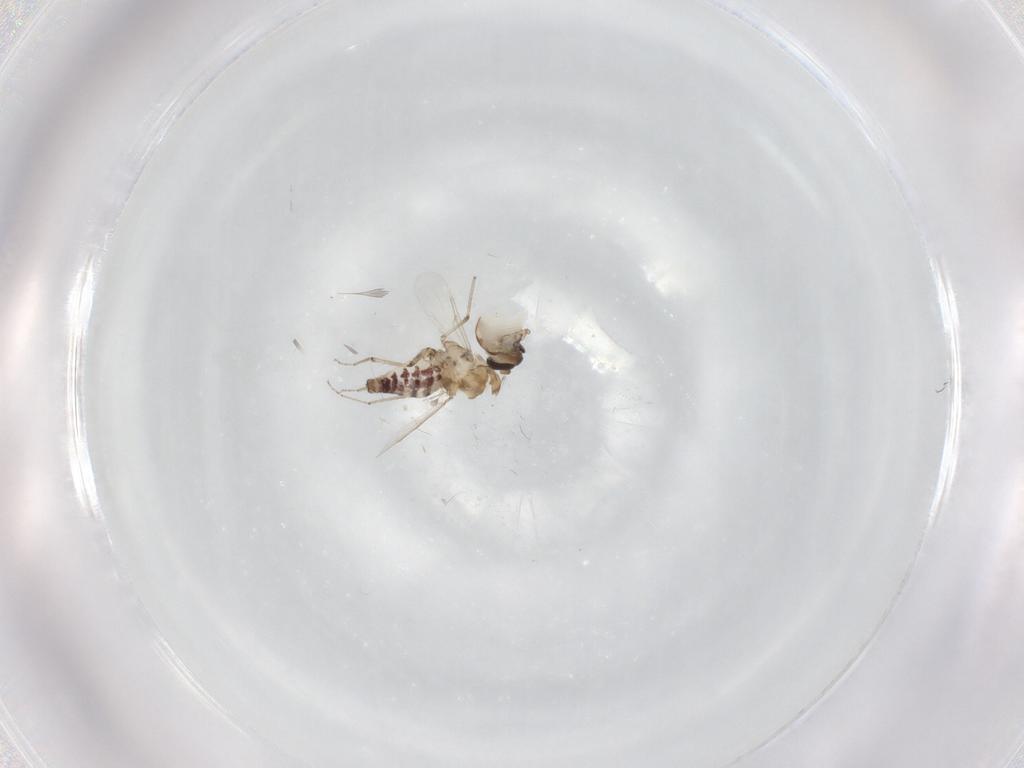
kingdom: Animalia
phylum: Arthropoda
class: Insecta
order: Diptera
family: Ceratopogonidae
